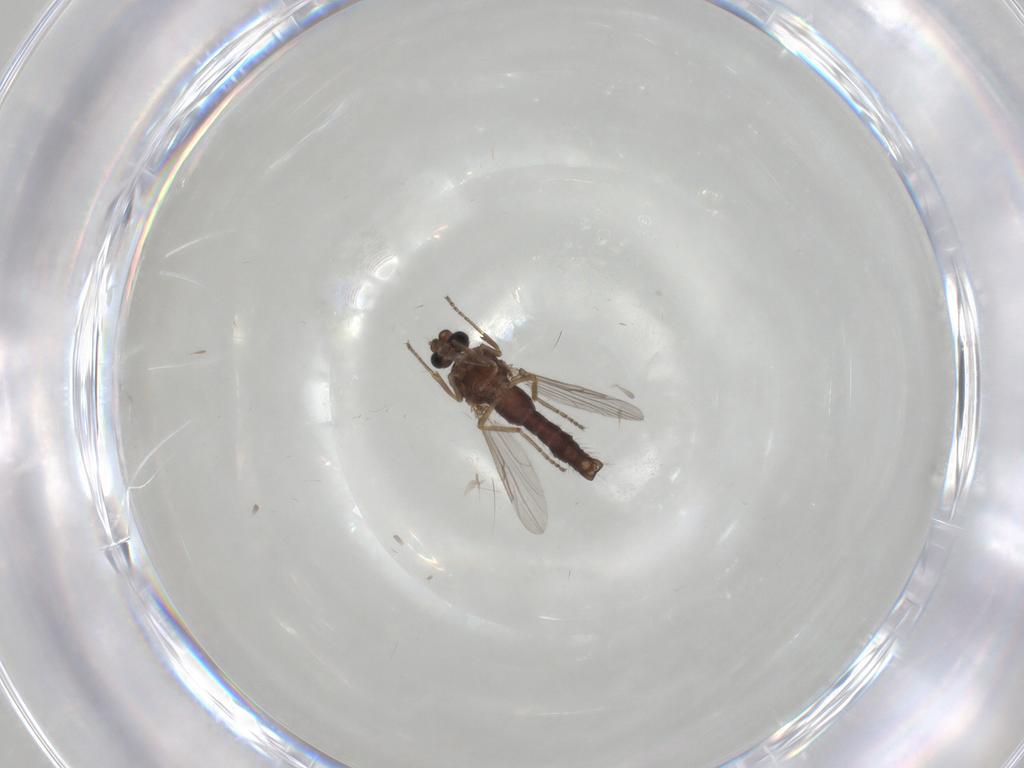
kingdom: Animalia
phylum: Arthropoda
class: Insecta
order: Diptera
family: Ceratopogonidae
